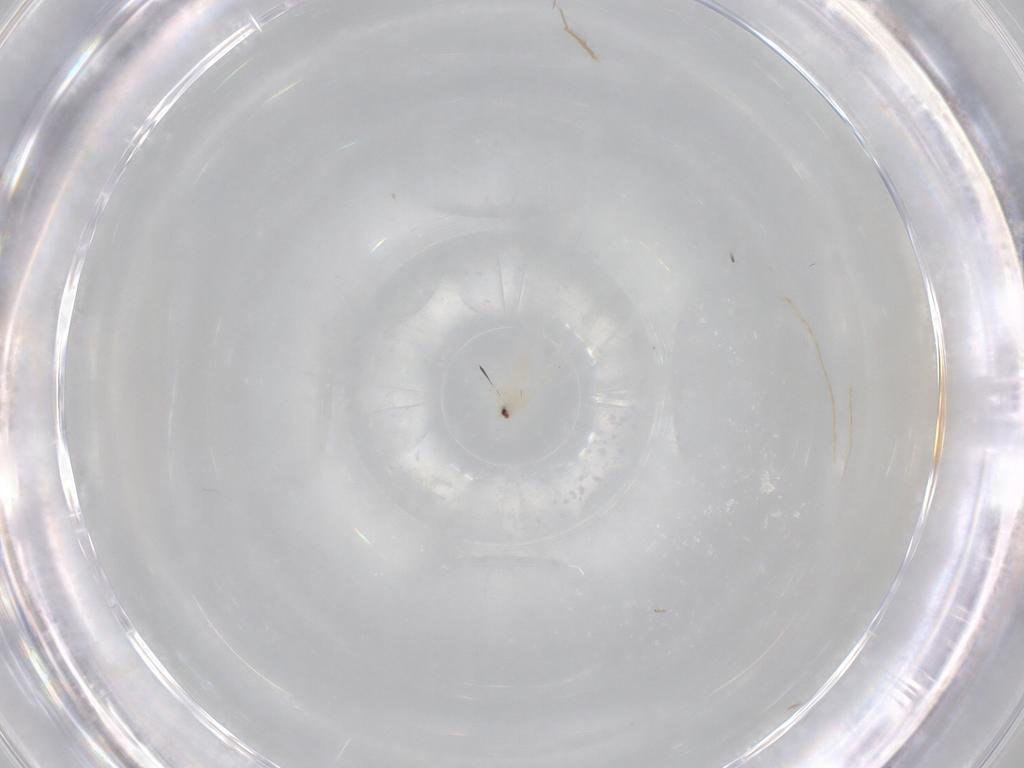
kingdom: Animalia
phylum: Arthropoda
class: Insecta
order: Hemiptera
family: Aleyrodidae
